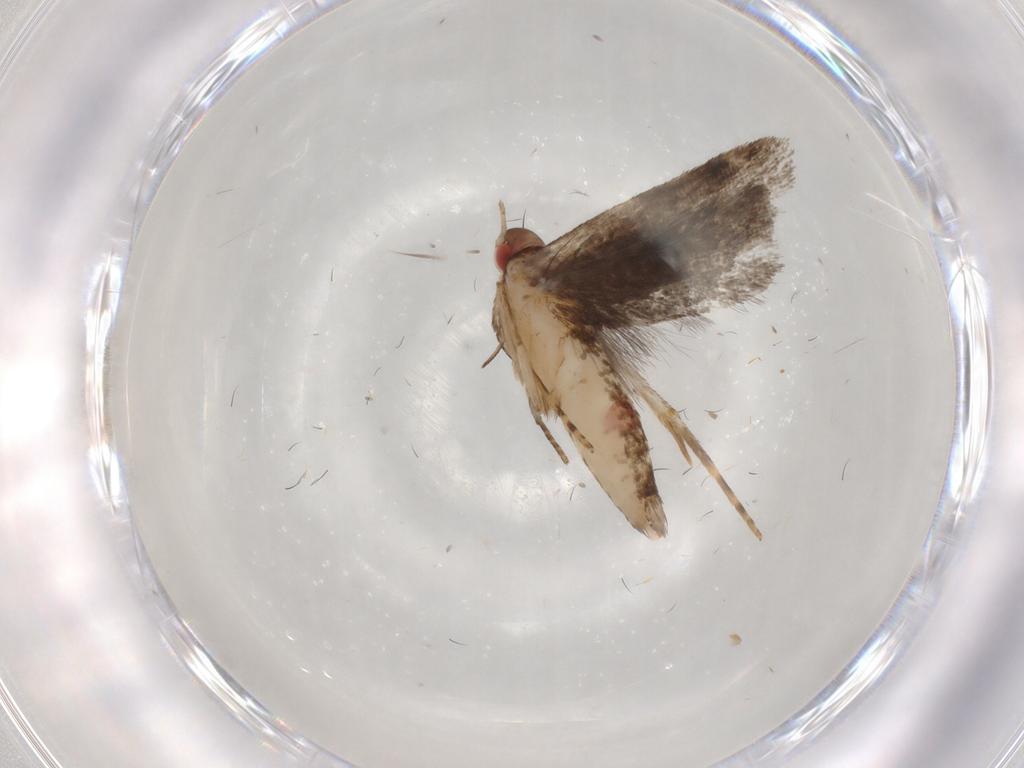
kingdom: Animalia
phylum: Arthropoda
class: Insecta
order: Lepidoptera
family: Gelechiidae
